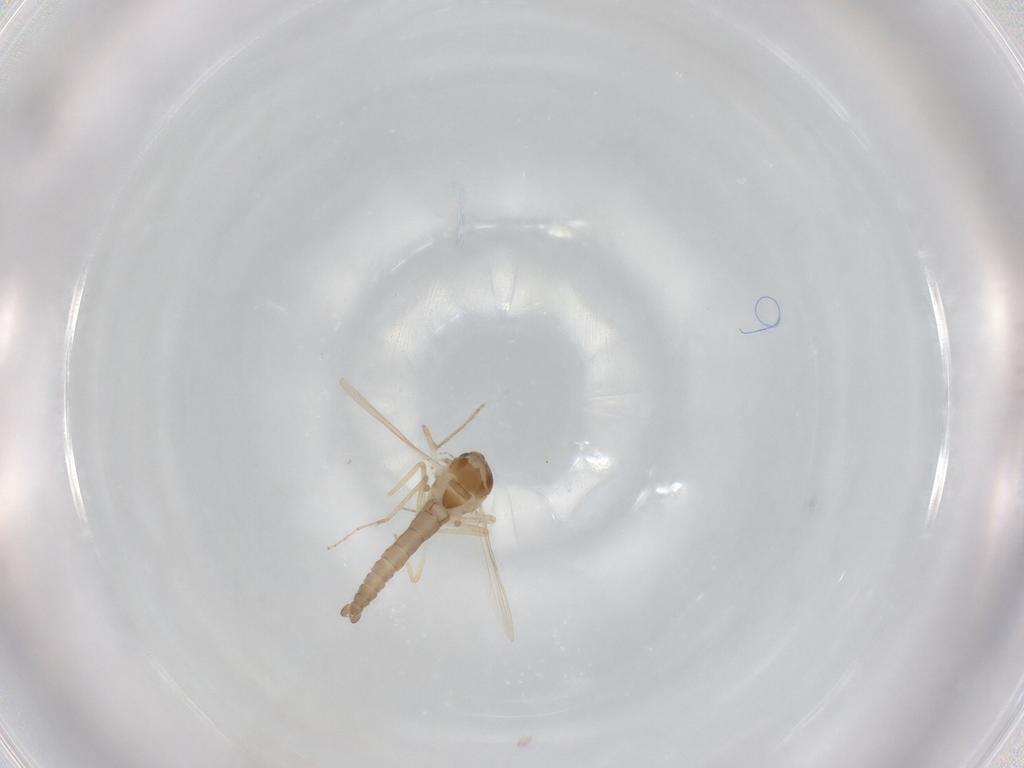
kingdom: Animalia
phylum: Arthropoda
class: Insecta
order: Diptera
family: Ceratopogonidae
